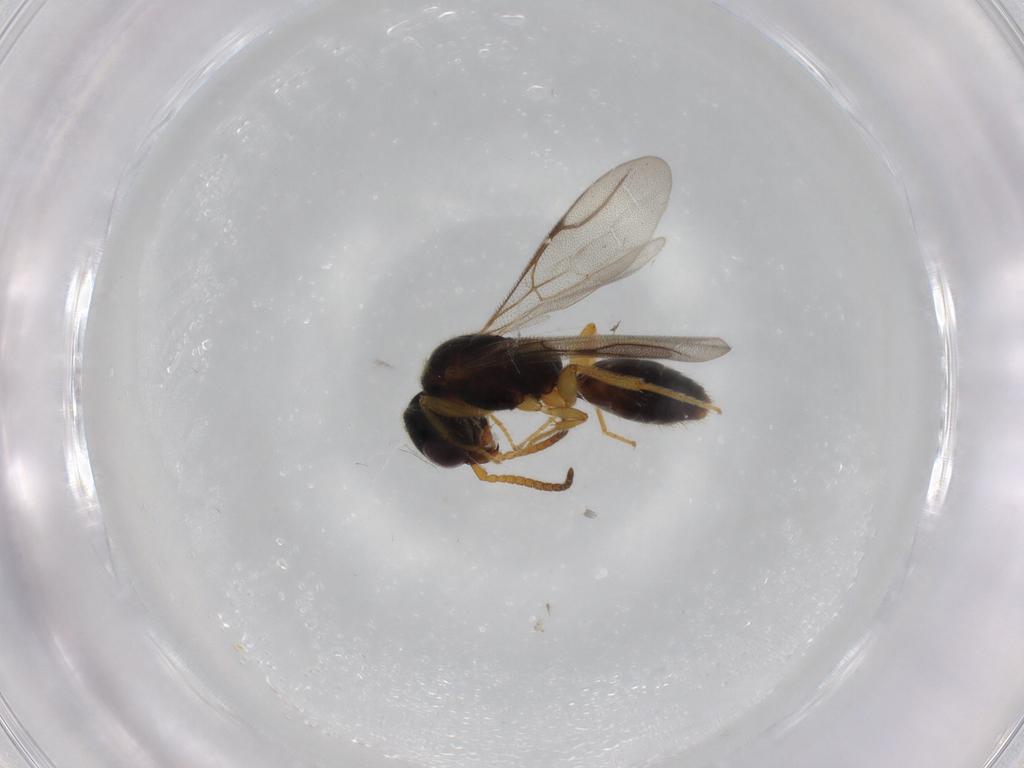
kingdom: Animalia
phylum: Arthropoda
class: Insecta
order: Hymenoptera
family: Bethylidae
